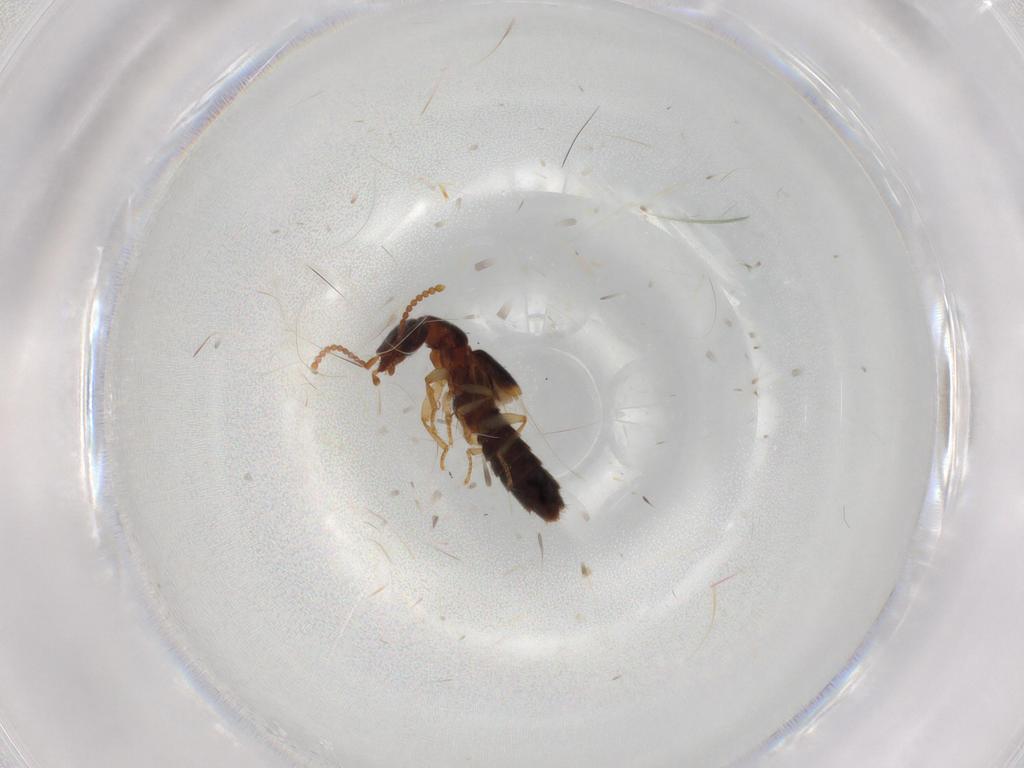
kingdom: Animalia
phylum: Arthropoda
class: Insecta
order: Coleoptera
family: Staphylinidae
